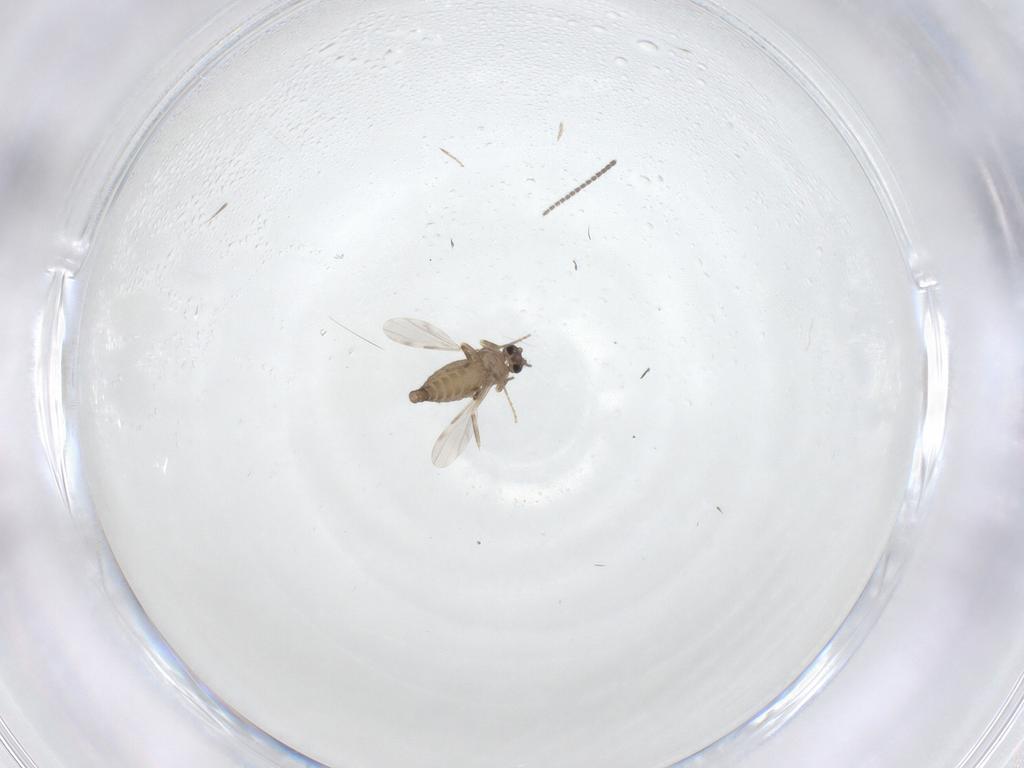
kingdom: Animalia
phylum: Arthropoda
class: Insecta
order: Diptera
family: Ceratopogonidae
